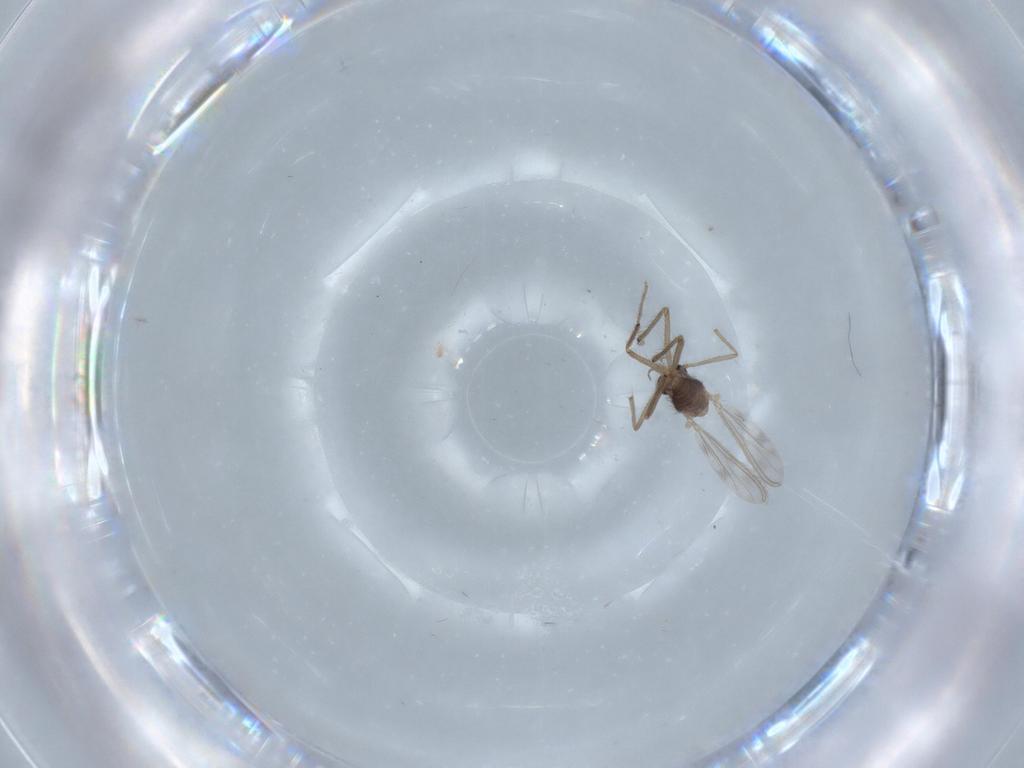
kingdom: Animalia
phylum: Arthropoda
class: Insecta
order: Diptera
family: Chironomidae
